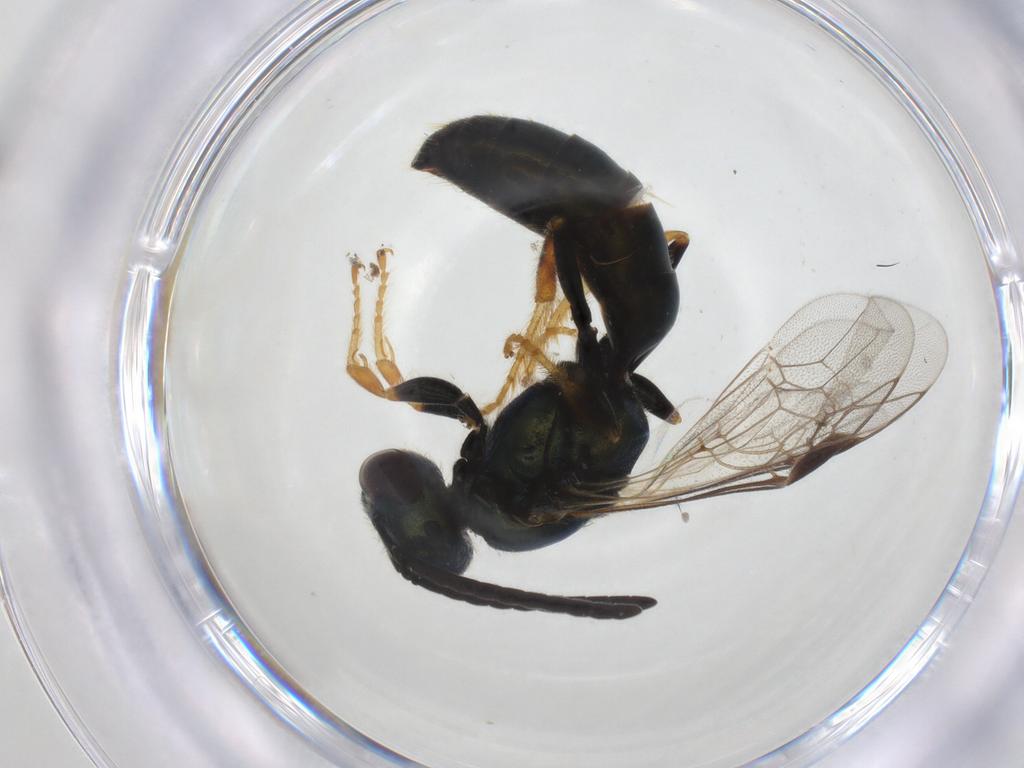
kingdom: Animalia
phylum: Arthropoda
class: Insecta
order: Hymenoptera
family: Halictidae
